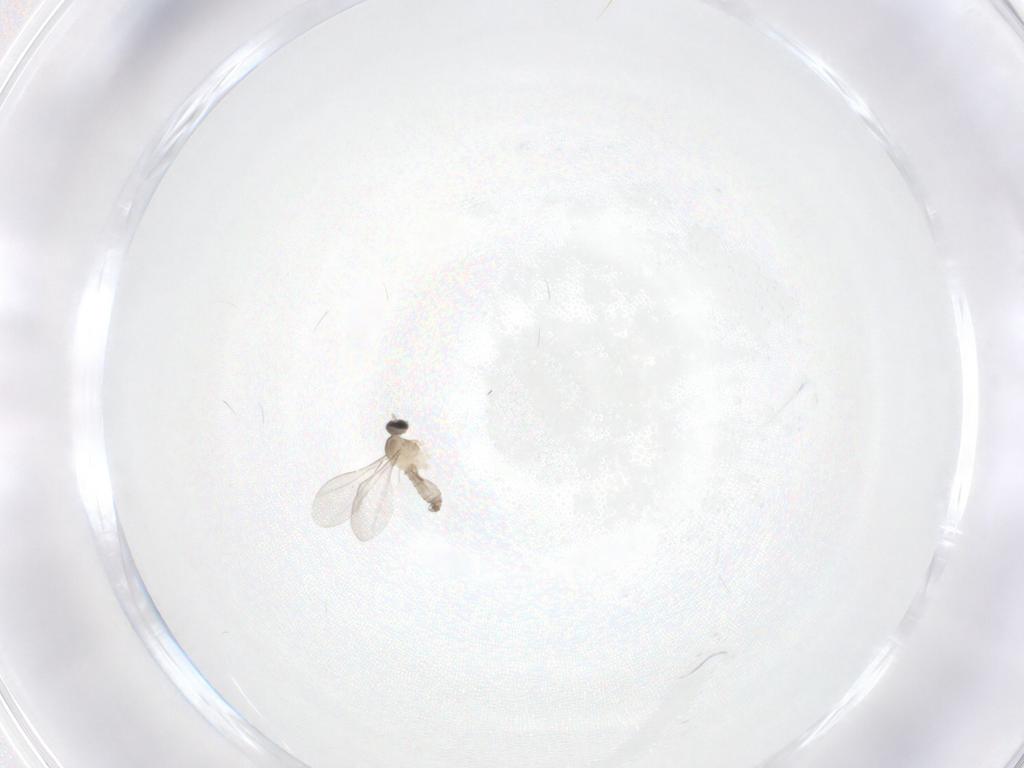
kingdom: Animalia
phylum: Arthropoda
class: Insecta
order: Diptera
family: Cecidomyiidae
